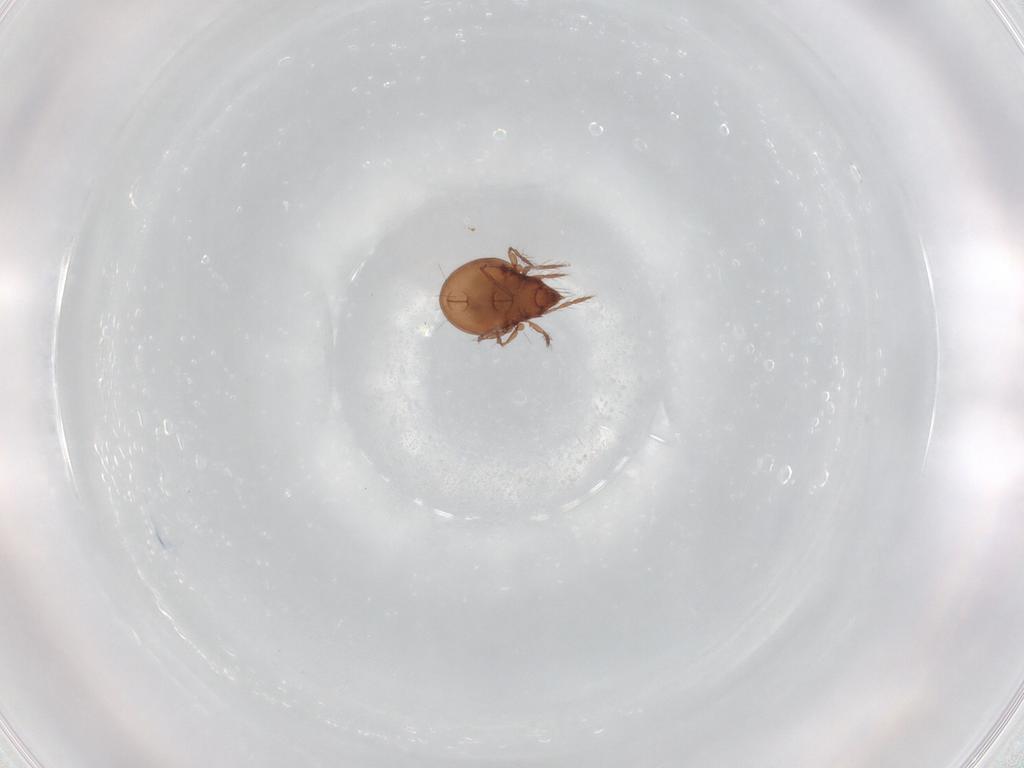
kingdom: Animalia
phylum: Arthropoda
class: Arachnida
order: Sarcoptiformes
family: Ceratoppiidae
